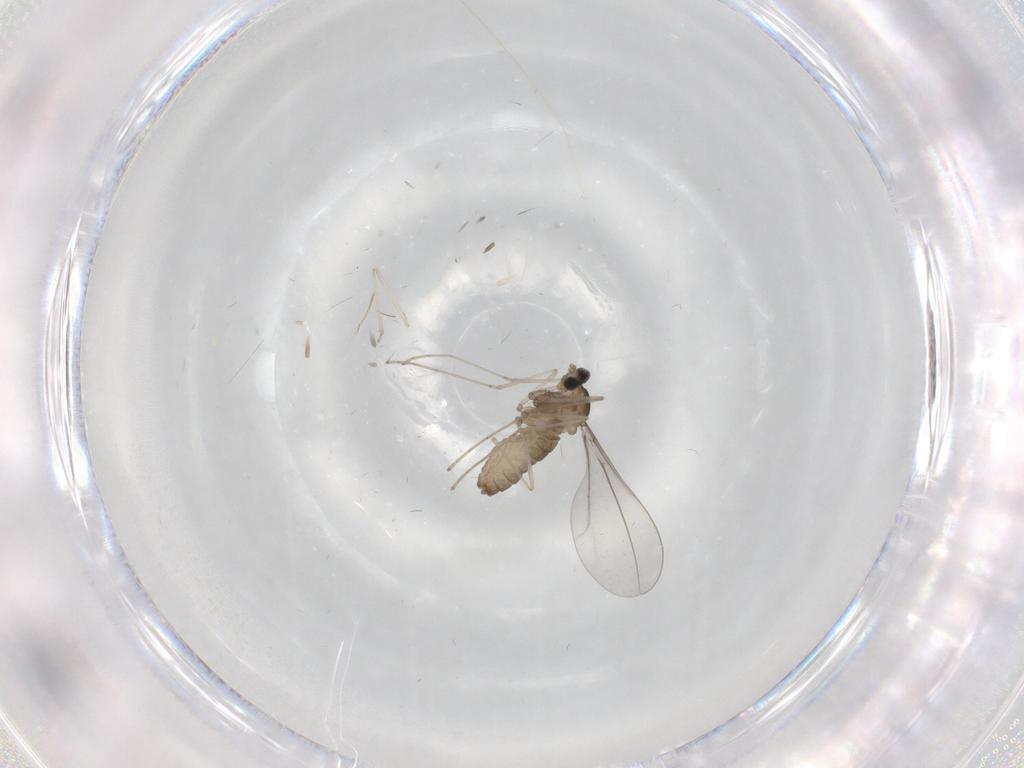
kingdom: Animalia
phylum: Arthropoda
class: Insecta
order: Diptera
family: Cecidomyiidae
